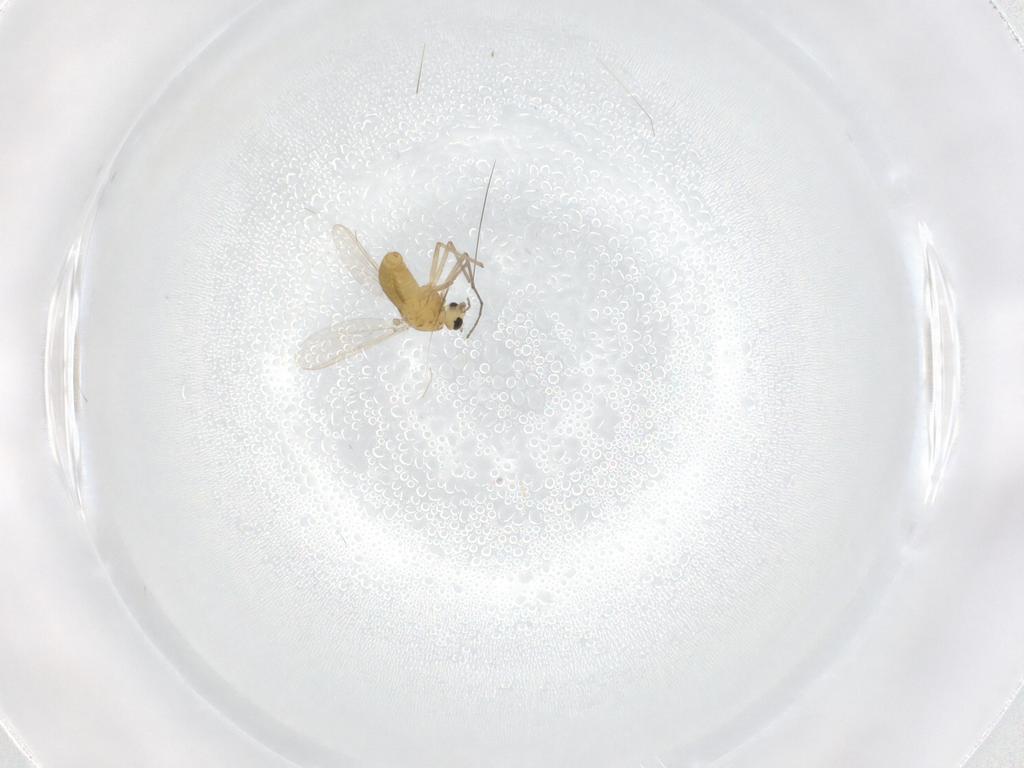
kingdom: Animalia
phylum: Arthropoda
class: Insecta
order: Diptera
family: Chironomidae
